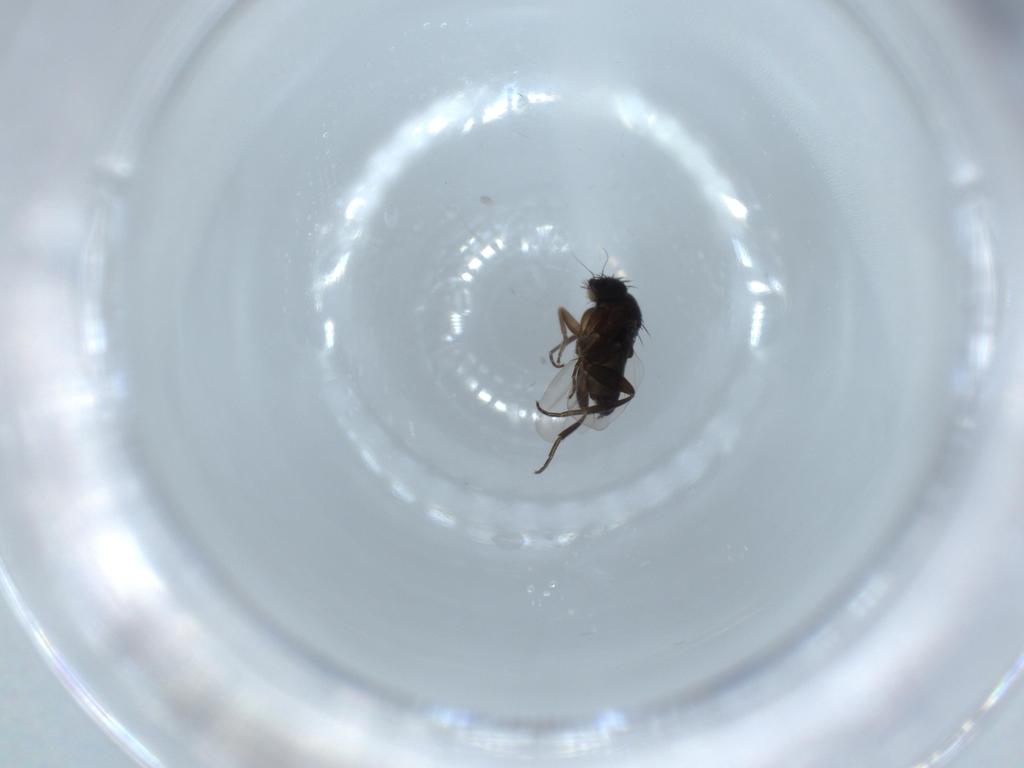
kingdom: Animalia
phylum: Arthropoda
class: Insecta
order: Diptera
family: Phoridae
